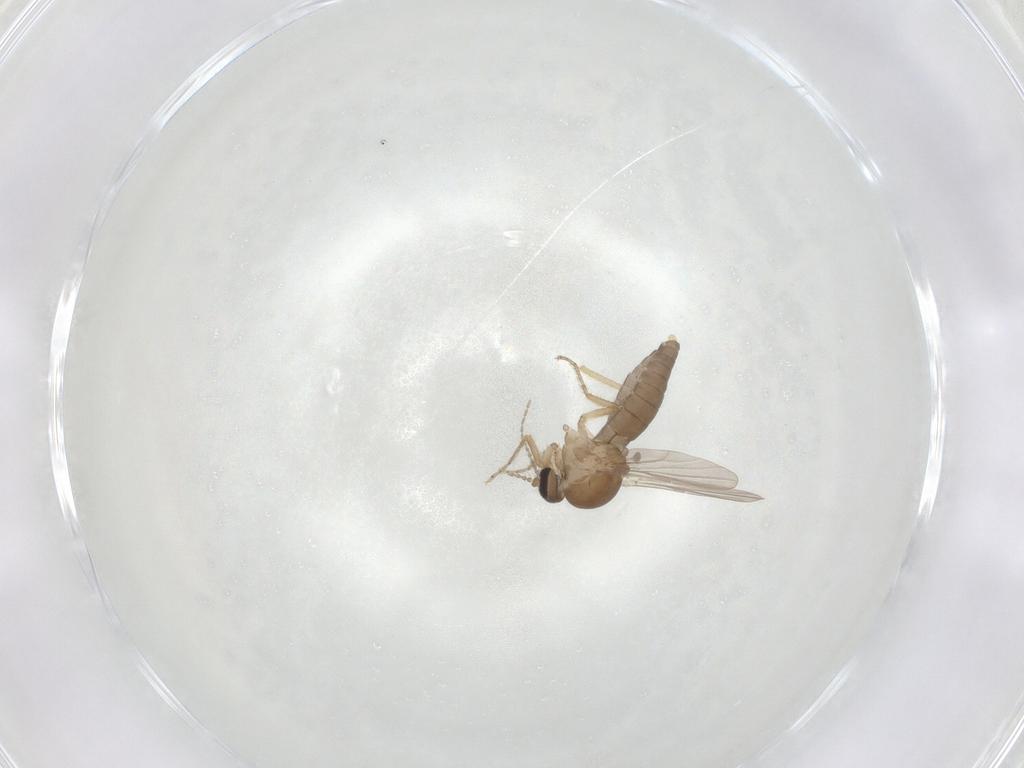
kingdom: Animalia
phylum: Arthropoda
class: Insecta
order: Diptera
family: Ceratopogonidae
